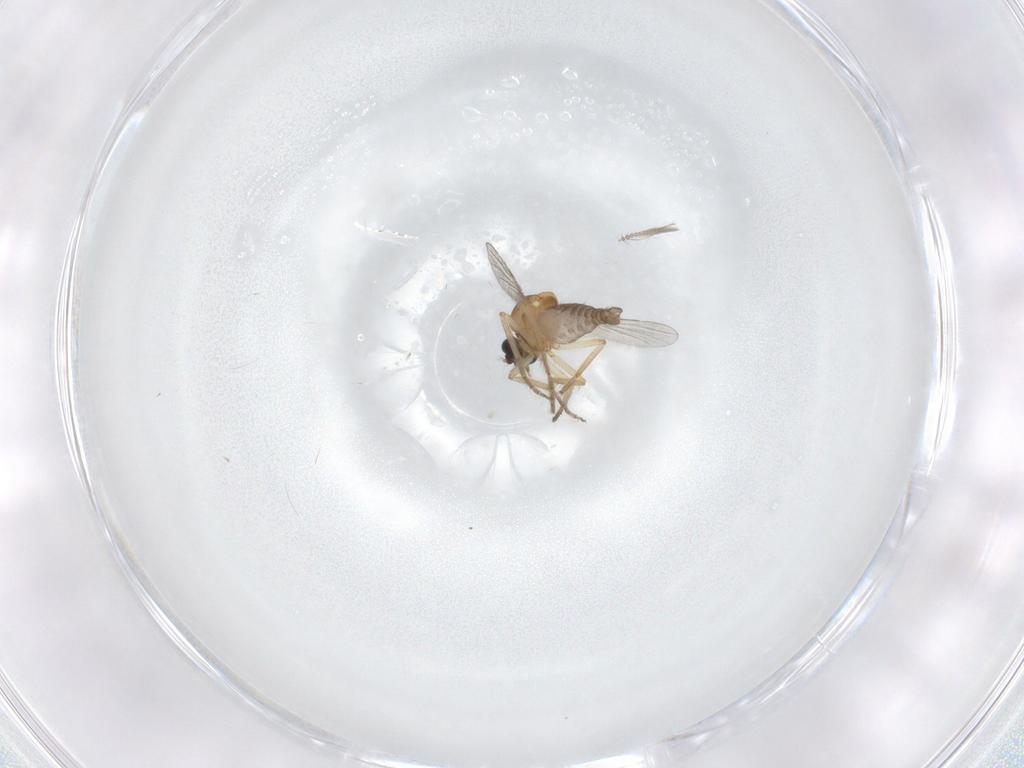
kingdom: Animalia
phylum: Arthropoda
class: Insecta
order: Diptera
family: Ceratopogonidae
